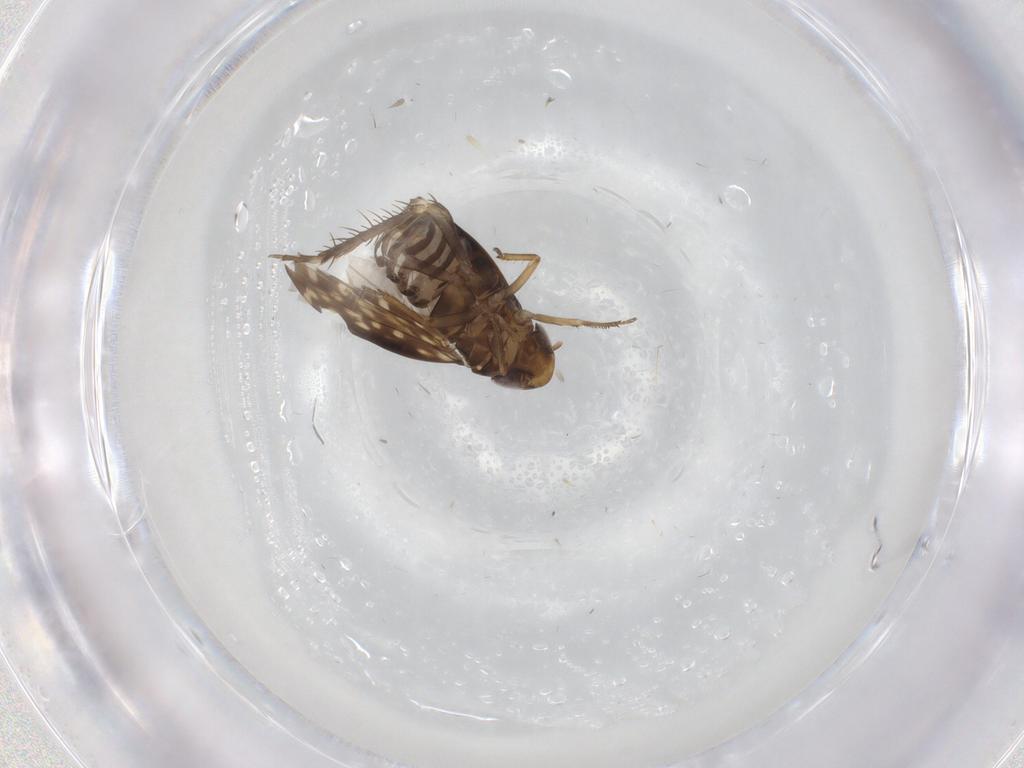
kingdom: Animalia
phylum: Arthropoda
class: Insecta
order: Hemiptera
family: Cicadellidae
